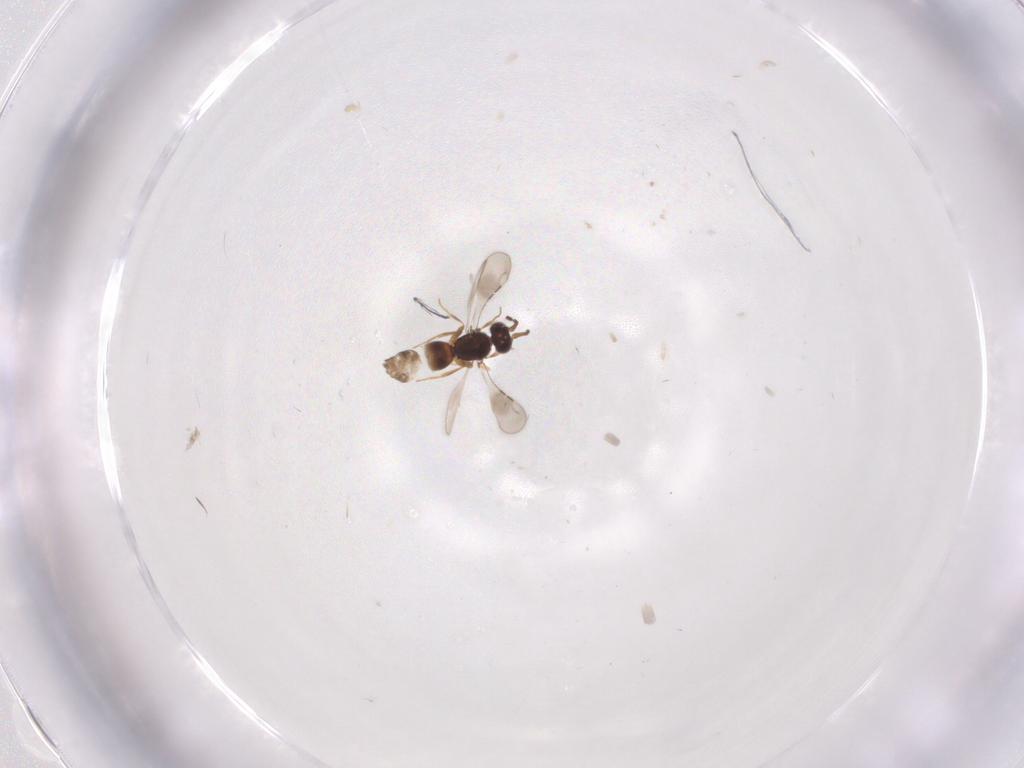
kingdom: Animalia
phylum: Arthropoda
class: Insecta
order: Hymenoptera
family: Ceraphronidae
